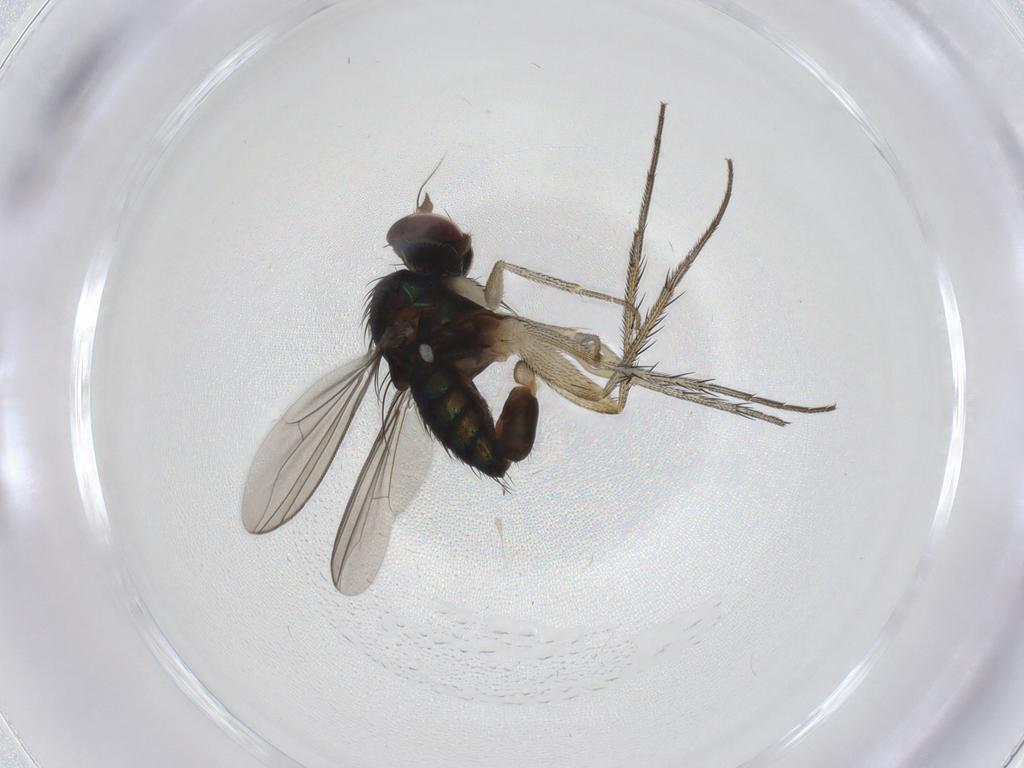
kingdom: Animalia
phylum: Arthropoda
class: Insecta
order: Diptera
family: Dolichopodidae
